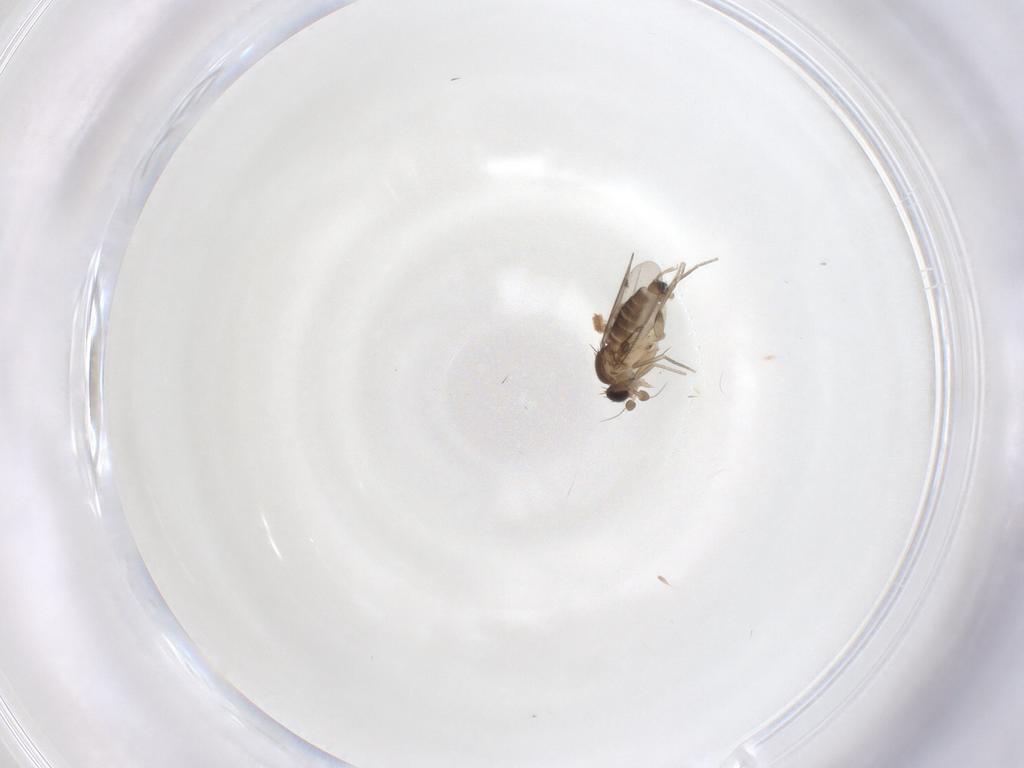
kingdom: Animalia
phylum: Arthropoda
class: Insecta
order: Diptera
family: Phoridae
